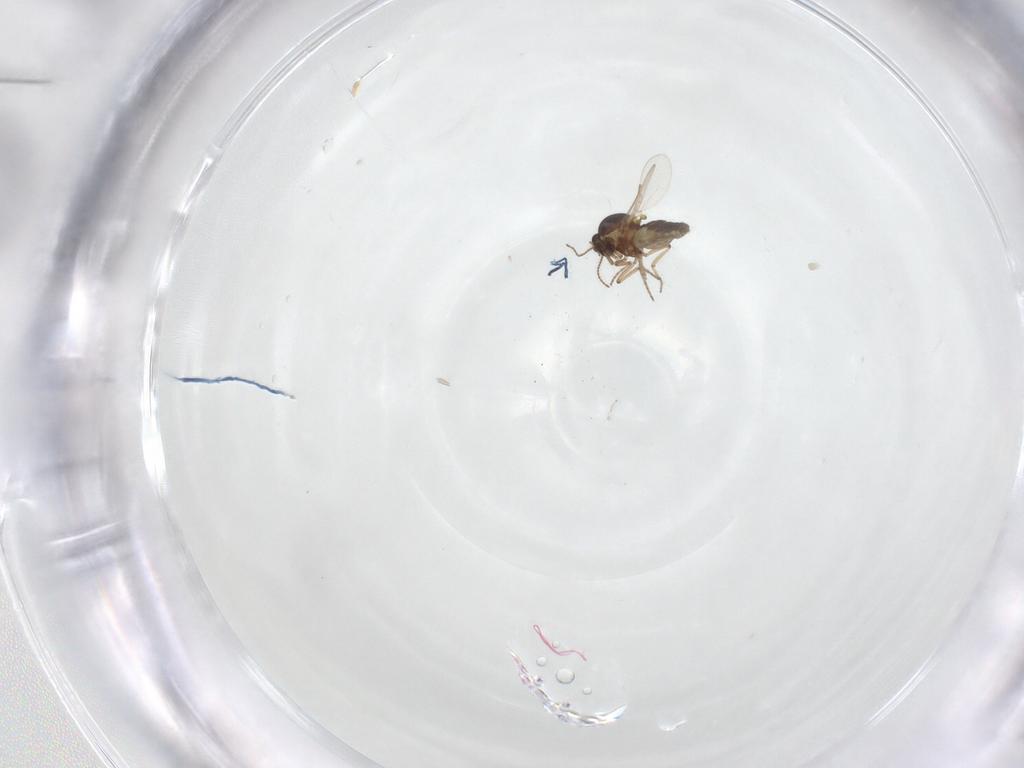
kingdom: Animalia
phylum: Arthropoda
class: Insecta
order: Diptera
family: Ceratopogonidae
